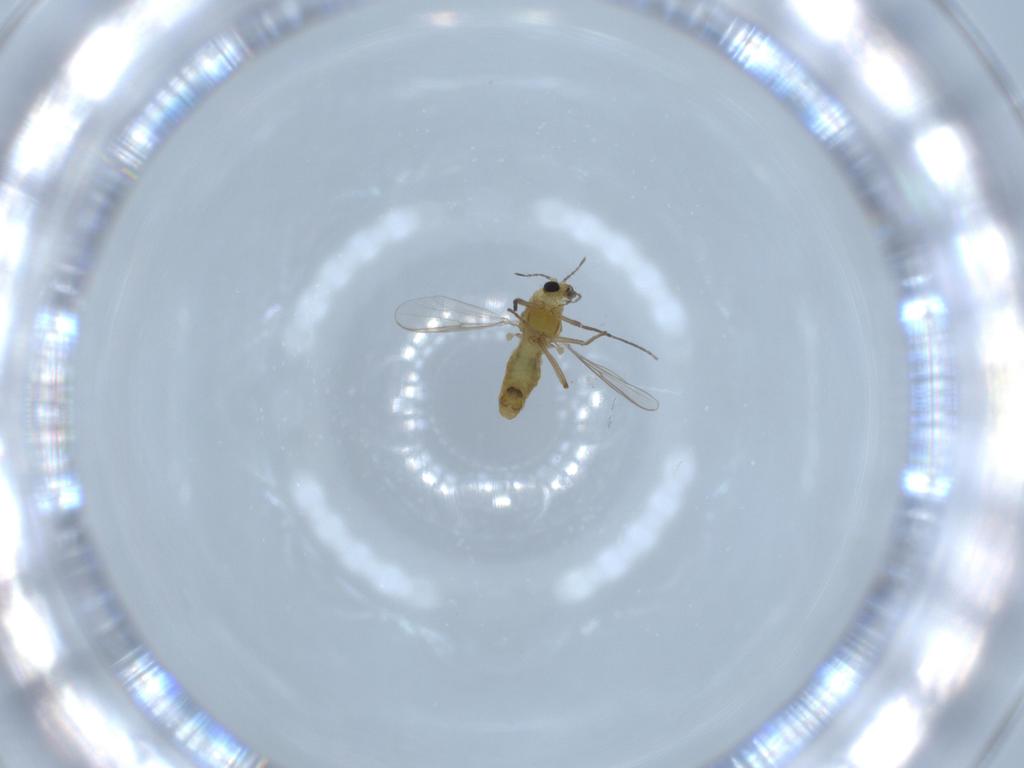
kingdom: Animalia
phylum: Arthropoda
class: Insecta
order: Diptera
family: Chironomidae
